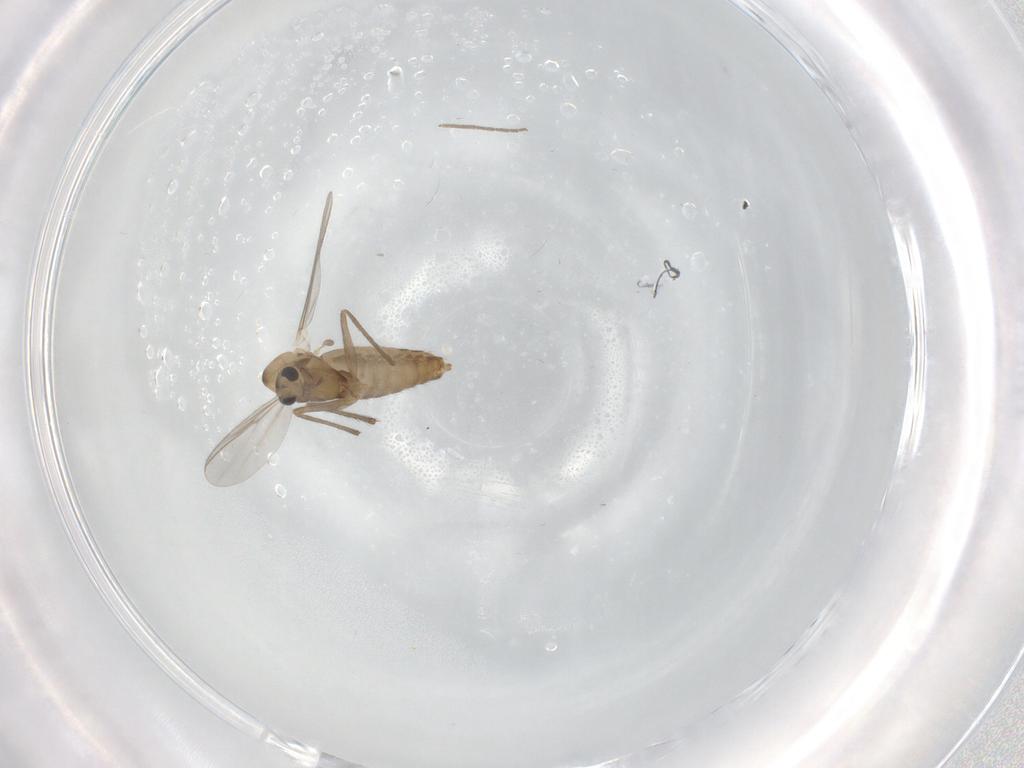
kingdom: Animalia
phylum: Arthropoda
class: Insecta
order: Diptera
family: Chironomidae
